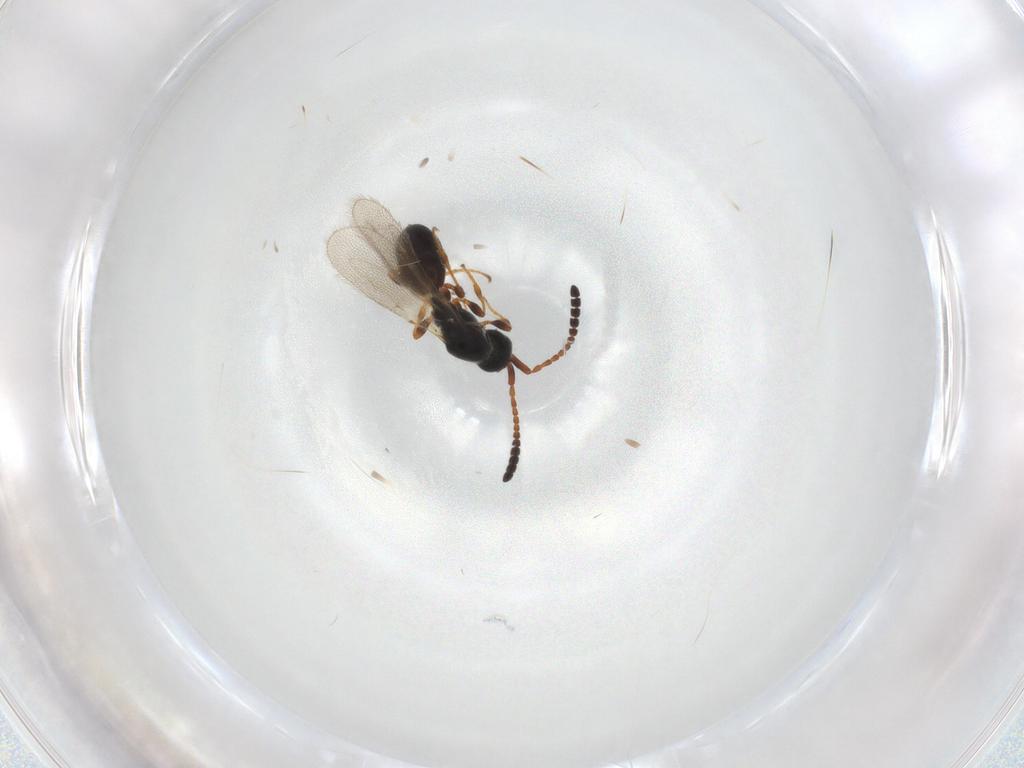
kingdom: Animalia
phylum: Arthropoda
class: Insecta
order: Hymenoptera
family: Diapriidae
